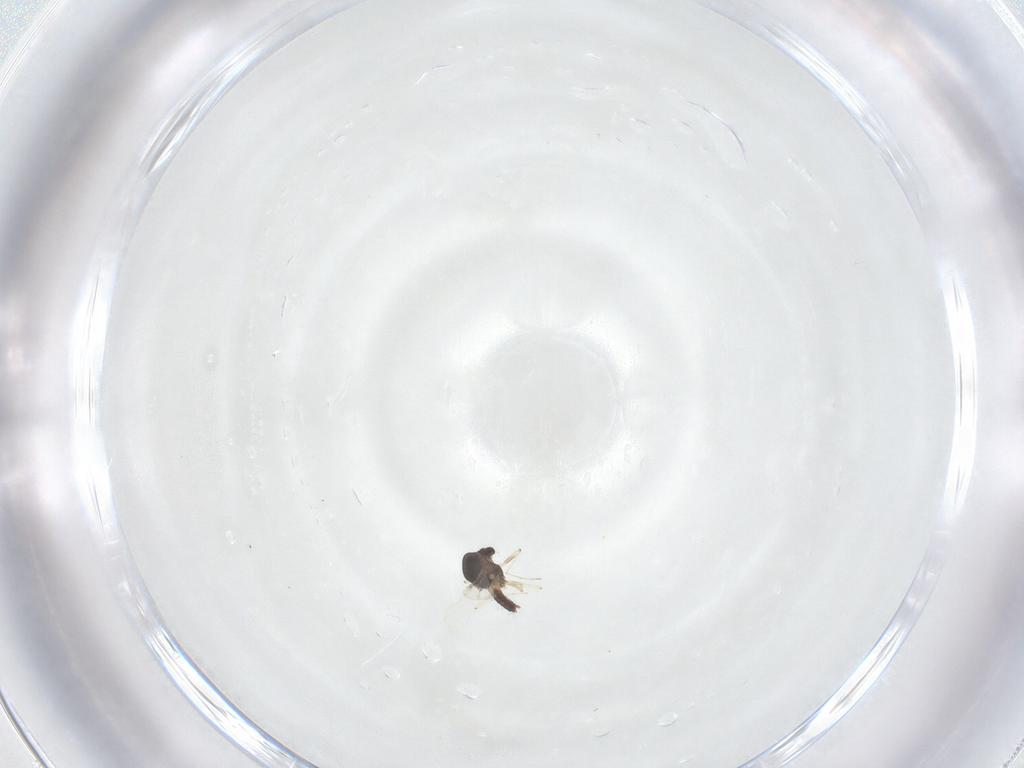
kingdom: Animalia
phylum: Arthropoda
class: Insecta
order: Diptera
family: Chironomidae
